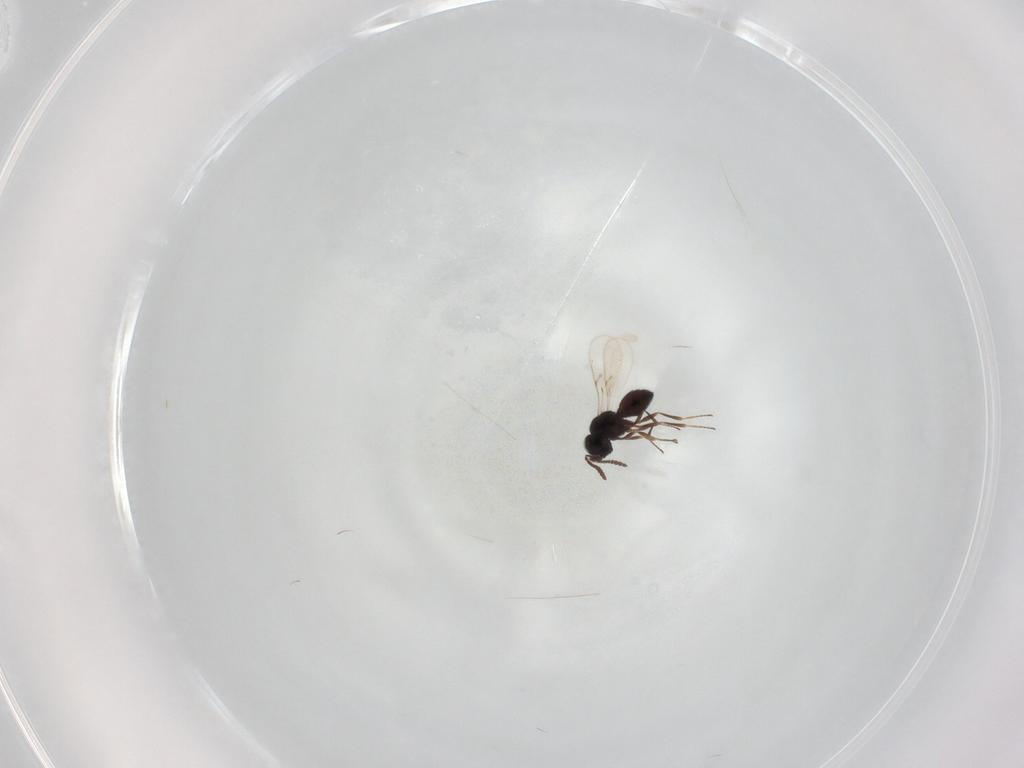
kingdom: Animalia
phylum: Arthropoda
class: Insecta
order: Hymenoptera
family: Scelionidae
